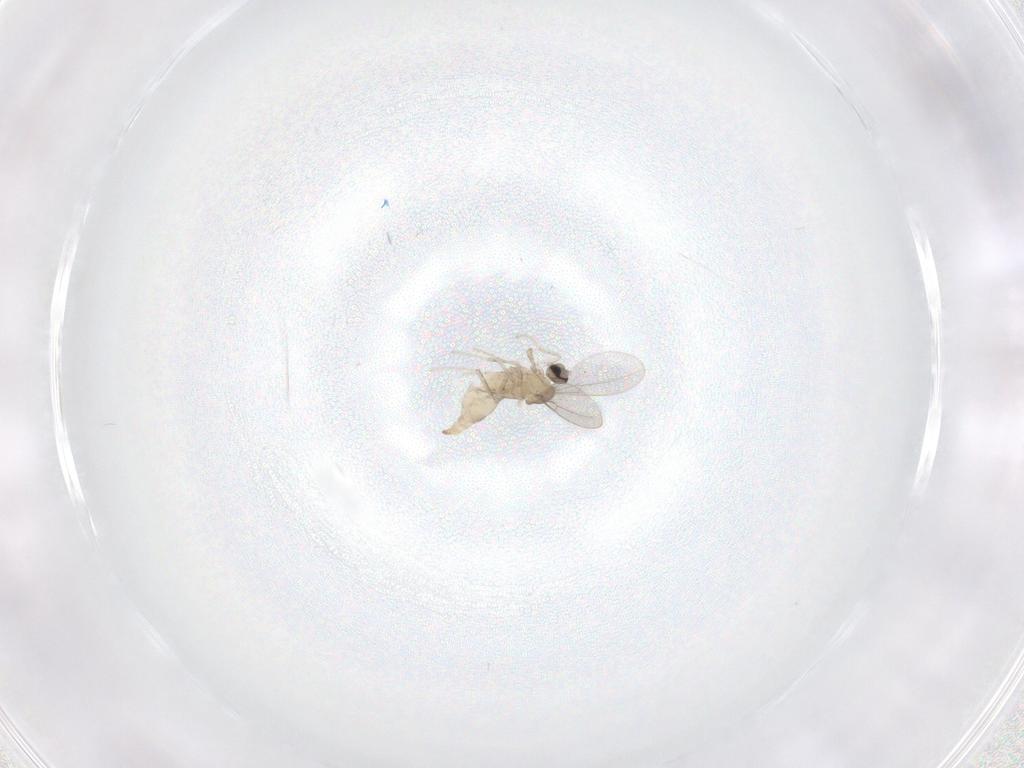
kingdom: Animalia
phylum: Arthropoda
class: Insecta
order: Diptera
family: Cecidomyiidae
